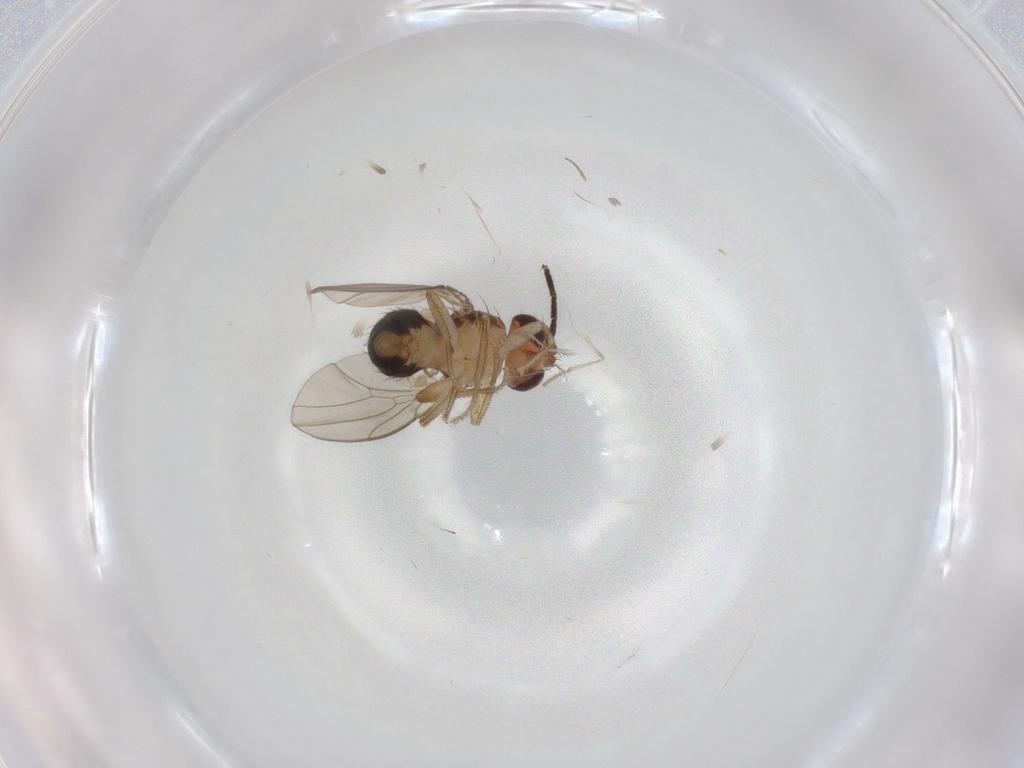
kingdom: Animalia
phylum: Arthropoda
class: Insecta
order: Diptera
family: Drosophilidae
